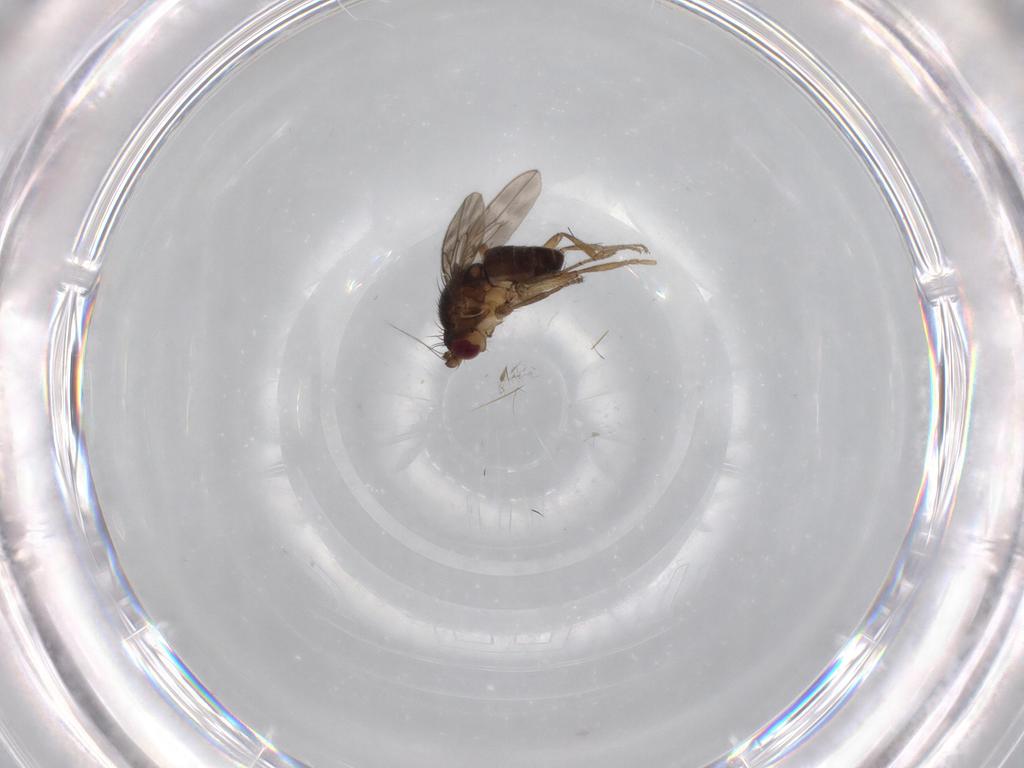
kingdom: Animalia
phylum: Arthropoda
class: Insecta
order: Diptera
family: Sphaeroceridae
